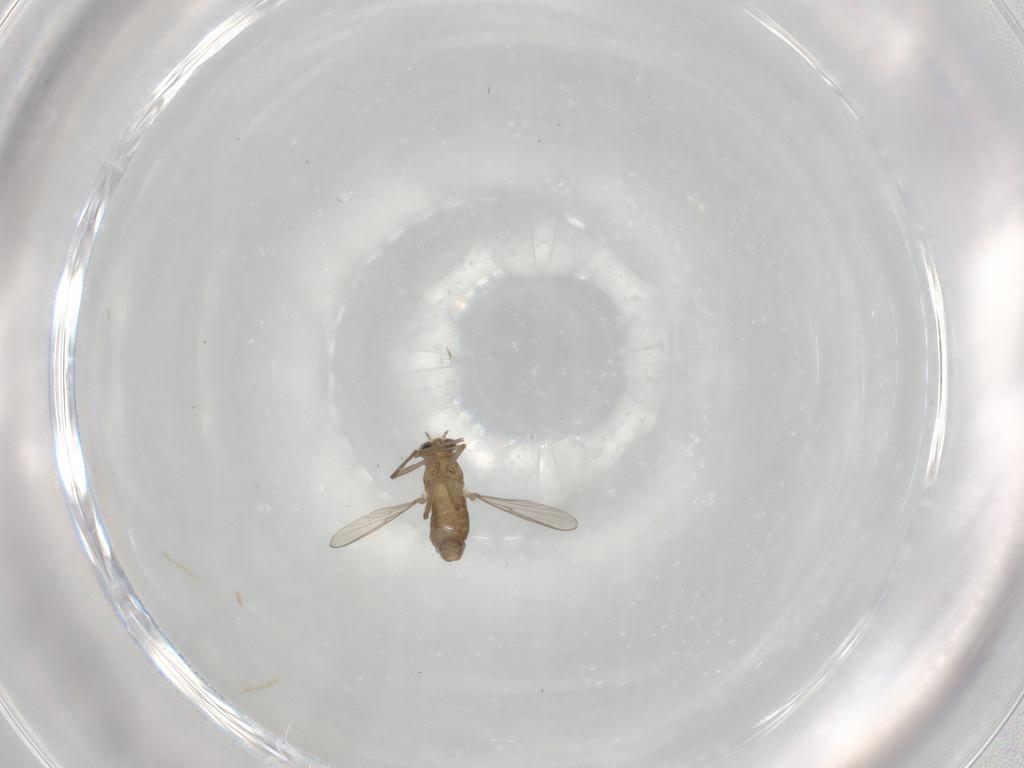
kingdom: Animalia
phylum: Arthropoda
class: Insecta
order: Diptera
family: Chironomidae
